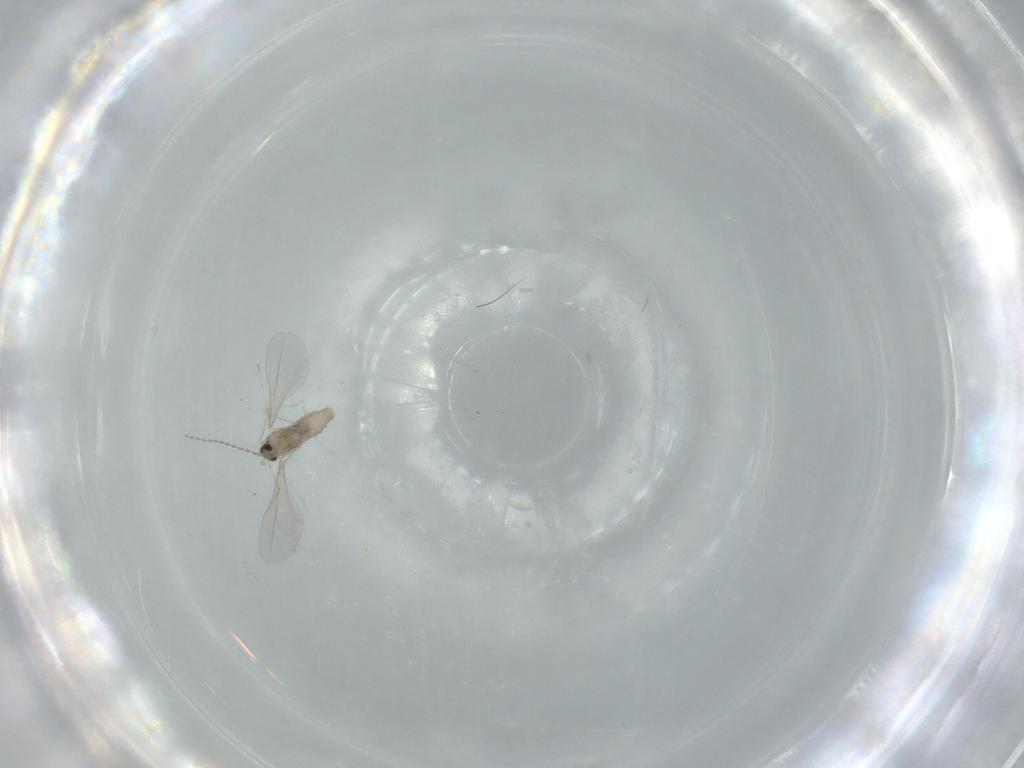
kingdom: Animalia
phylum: Arthropoda
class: Insecta
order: Diptera
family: Cecidomyiidae
